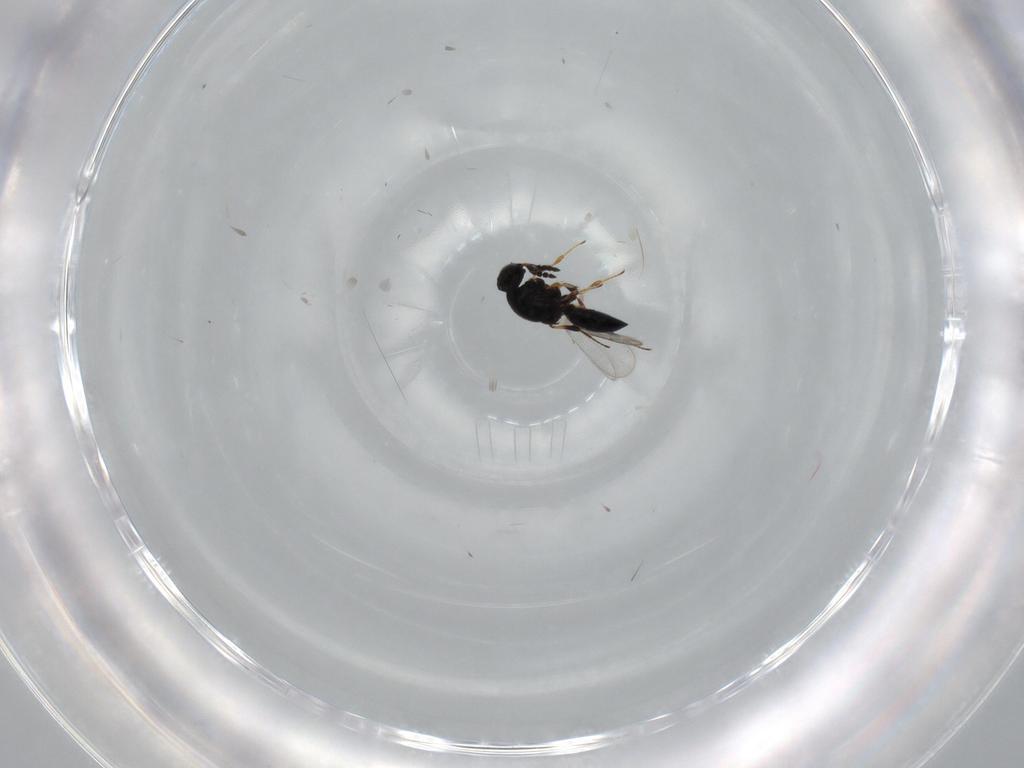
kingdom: Animalia
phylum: Arthropoda
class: Insecta
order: Hymenoptera
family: Platygastridae
